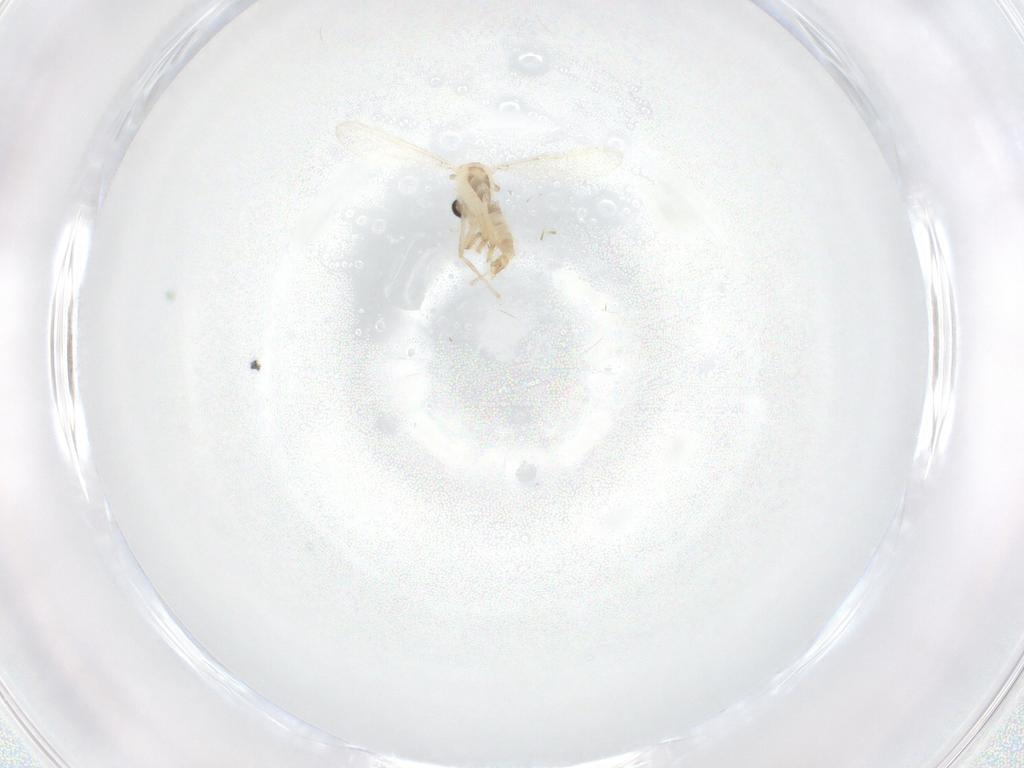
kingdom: Animalia
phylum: Arthropoda
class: Insecta
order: Diptera
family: Chironomidae
